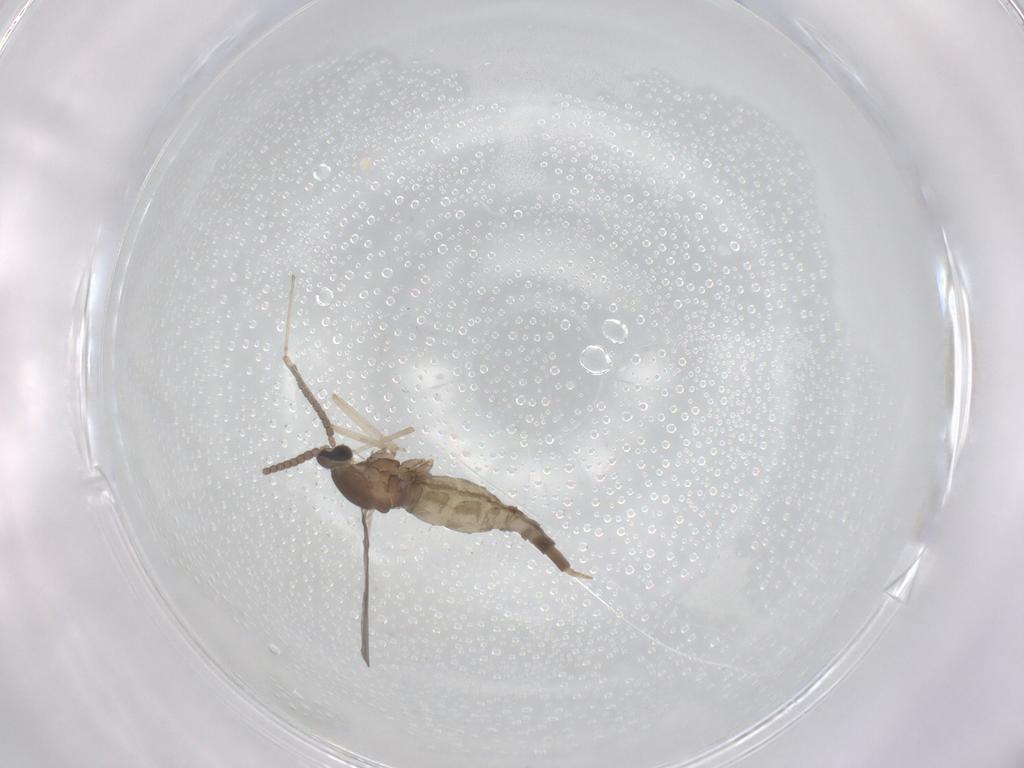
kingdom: Animalia
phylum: Arthropoda
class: Insecta
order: Diptera
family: Cecidomyiidae
